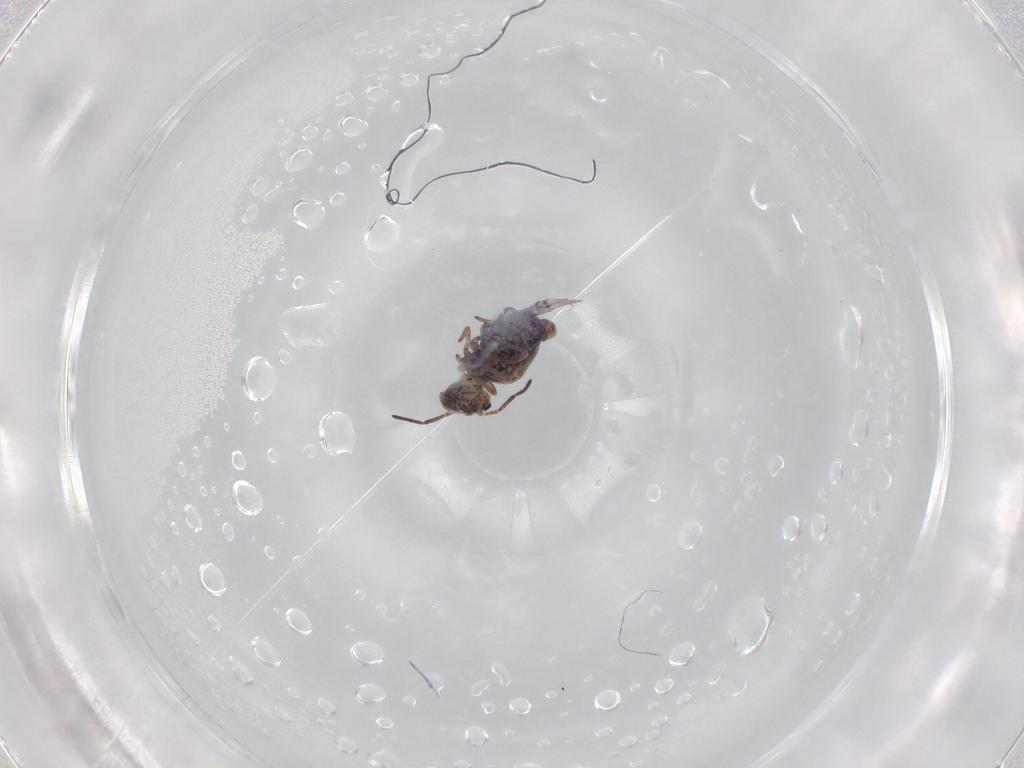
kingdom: Animalia
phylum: Arthropoda
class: Collembola
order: Symphypleona
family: Bourletiellidae
